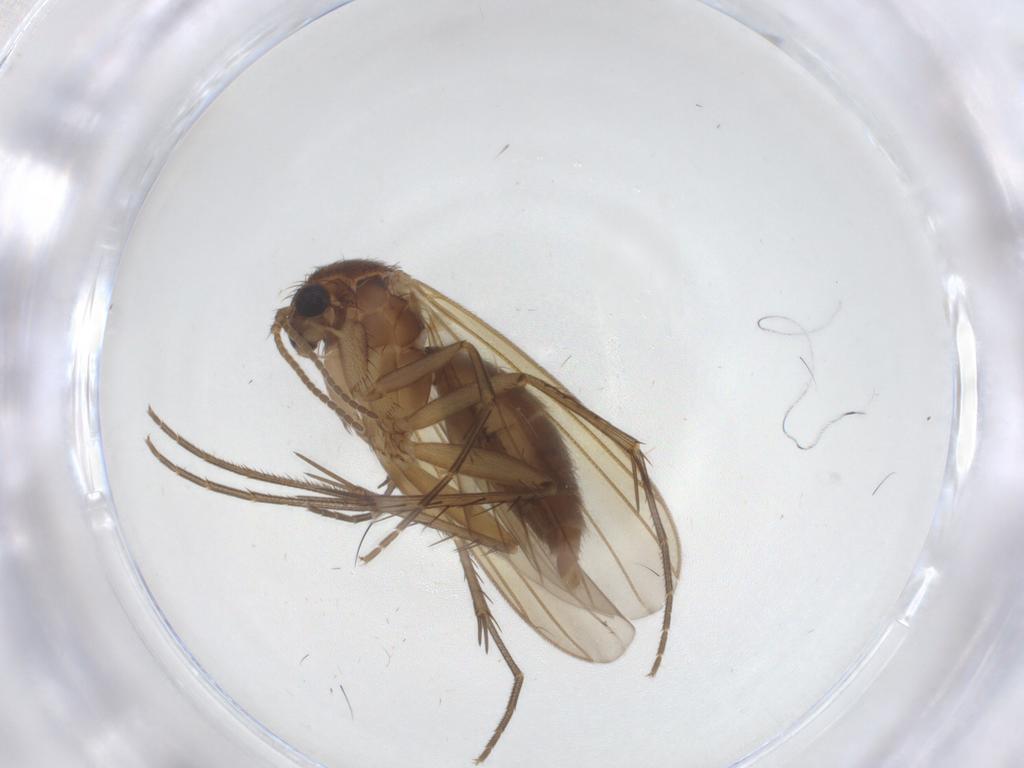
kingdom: Animalia
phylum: Arthropoda
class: Insecta
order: Diptera
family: Mycetophilidae
